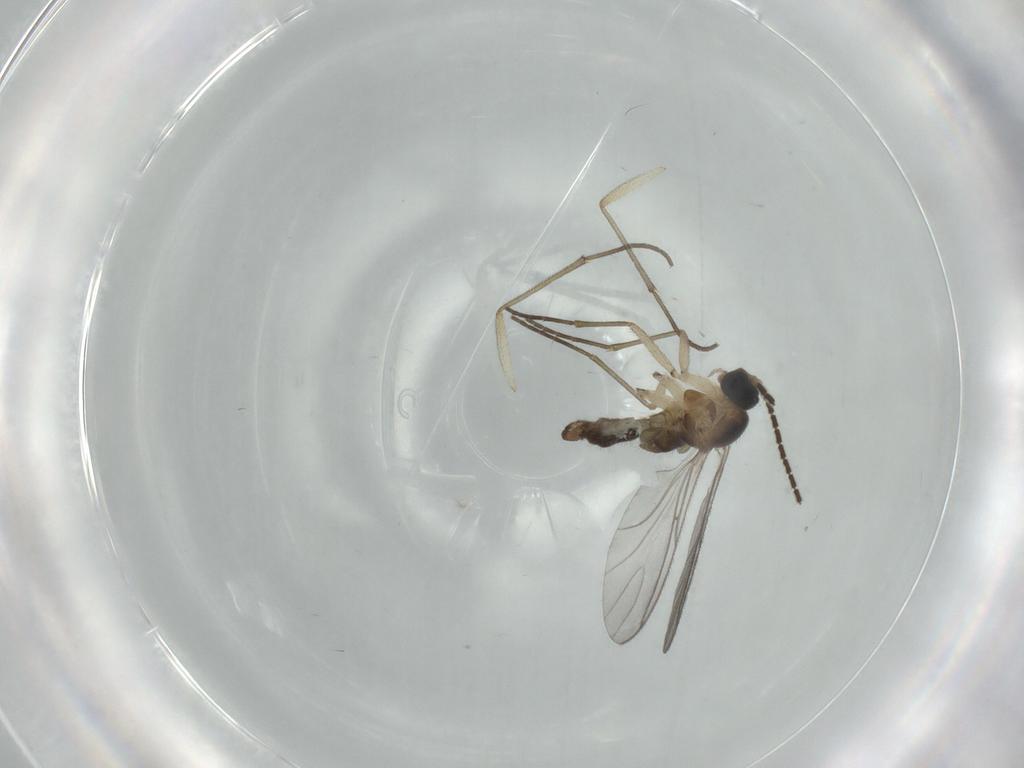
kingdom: Animalia
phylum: Arthropoda
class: Insecta
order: Diptera
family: Sciaridae
